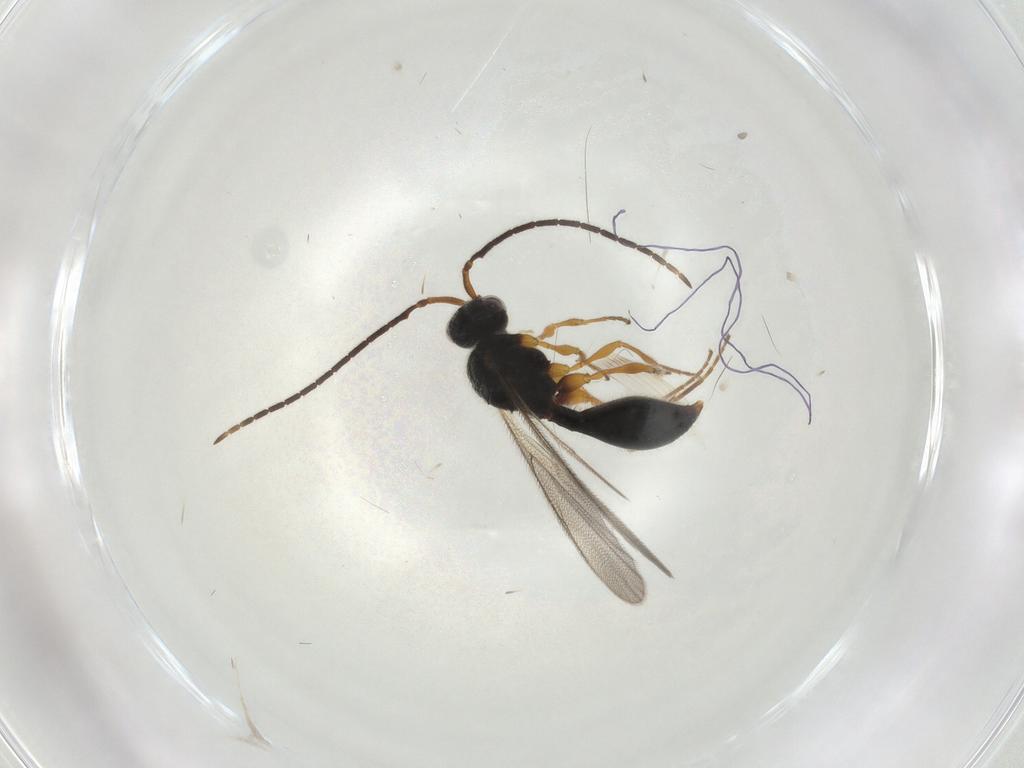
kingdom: Animalia
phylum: Arthropoda
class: Insecta
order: Hymenoptera
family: Diapriidae
